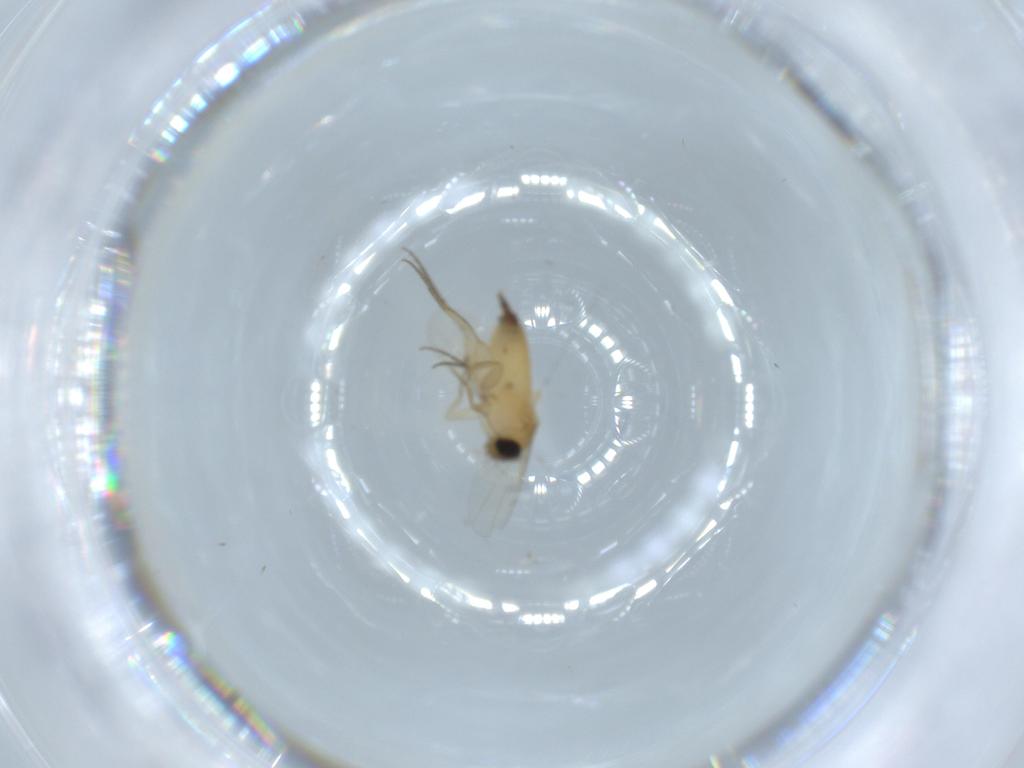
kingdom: Animalia
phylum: Arthropoda
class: Insecta
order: Diptera
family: Phoridae
